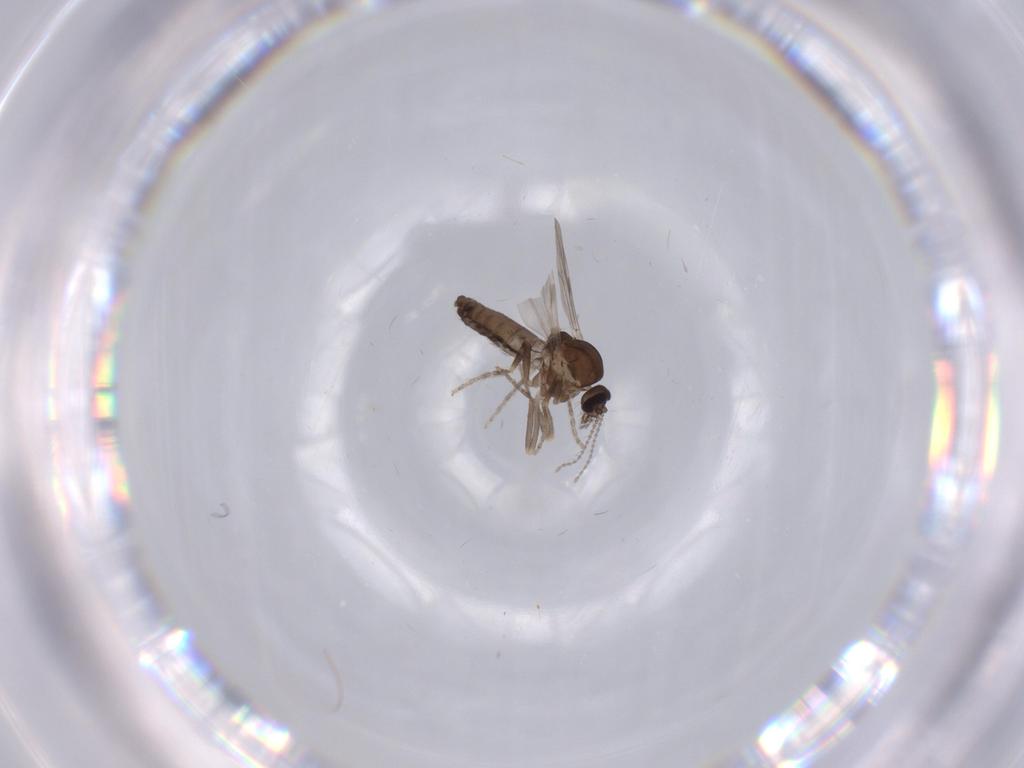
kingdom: Animalia
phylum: Arthropoda
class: Insecta
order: Diptera
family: Ceratopogonidae
